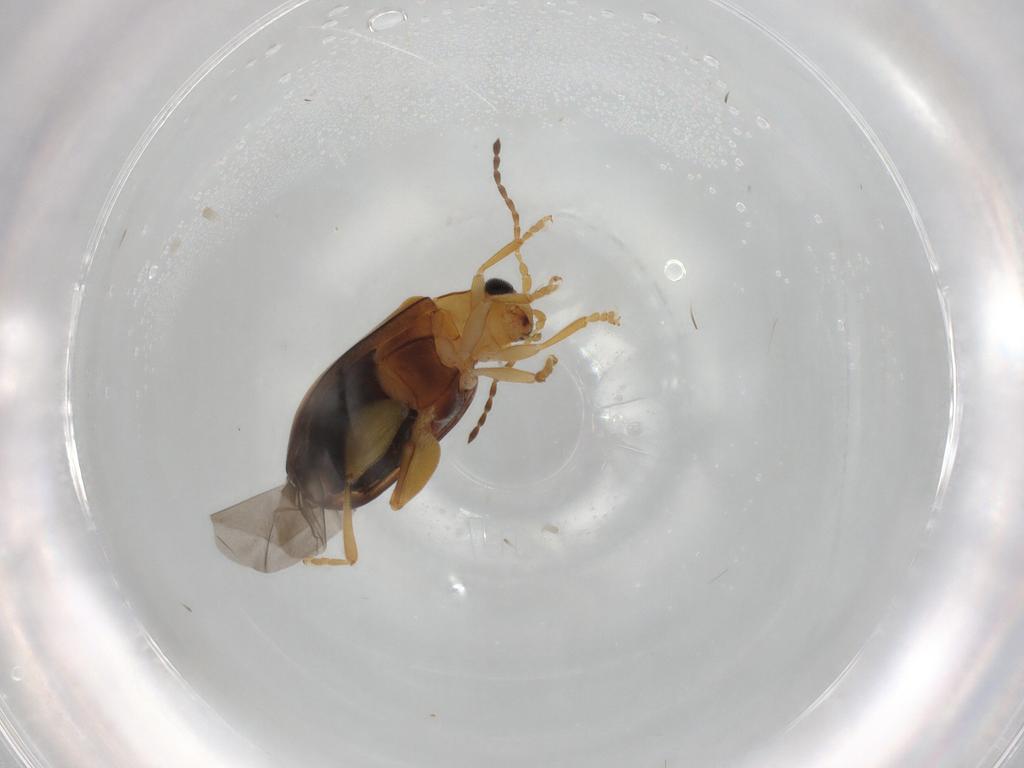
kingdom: Animalia
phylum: Arthropoda
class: Insecta
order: Coleoptera
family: Chrysomelidae
